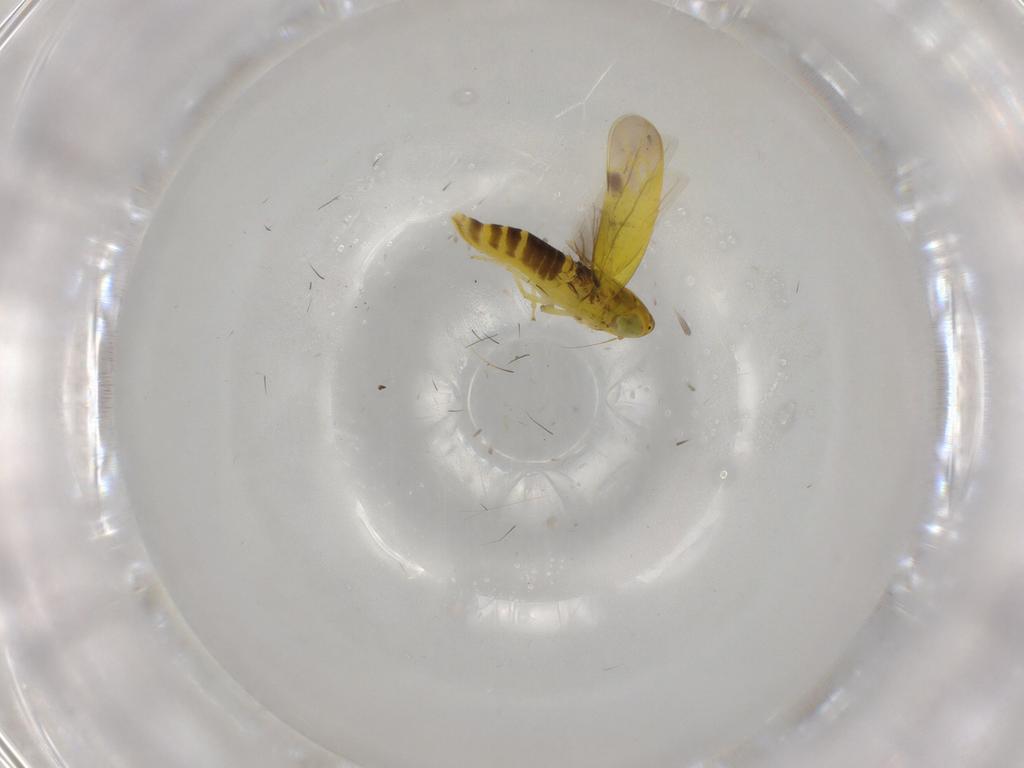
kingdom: Animalia
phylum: Arthropoda
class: Insecta
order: Hemiptera
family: Cicadellidae
